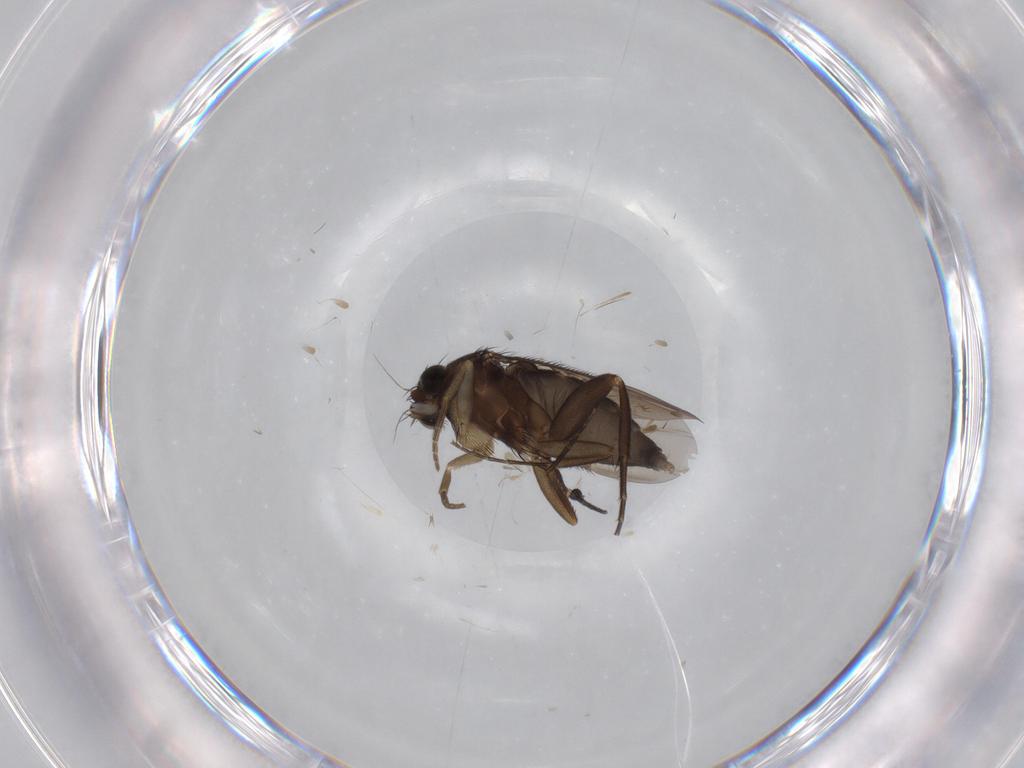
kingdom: Animalia
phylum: Arthropoda
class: Insecta
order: Diptera
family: Phoridae
